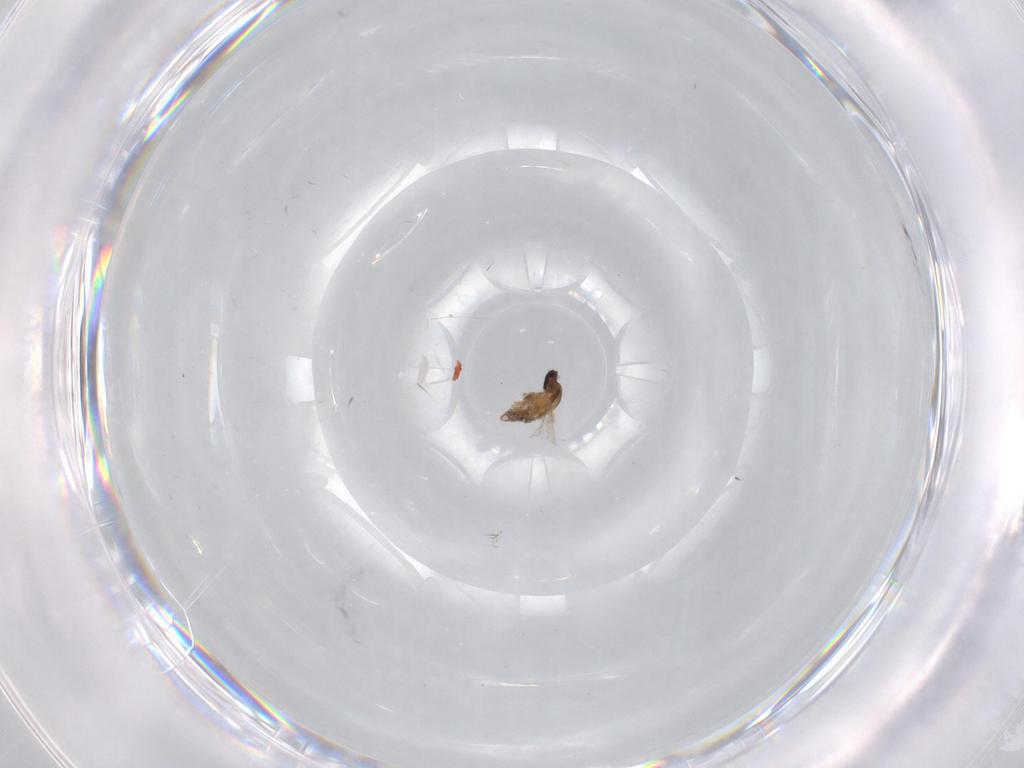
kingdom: Animalia
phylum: Arthropoda
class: Insecta
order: Diptera
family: Cecidomyiidae
